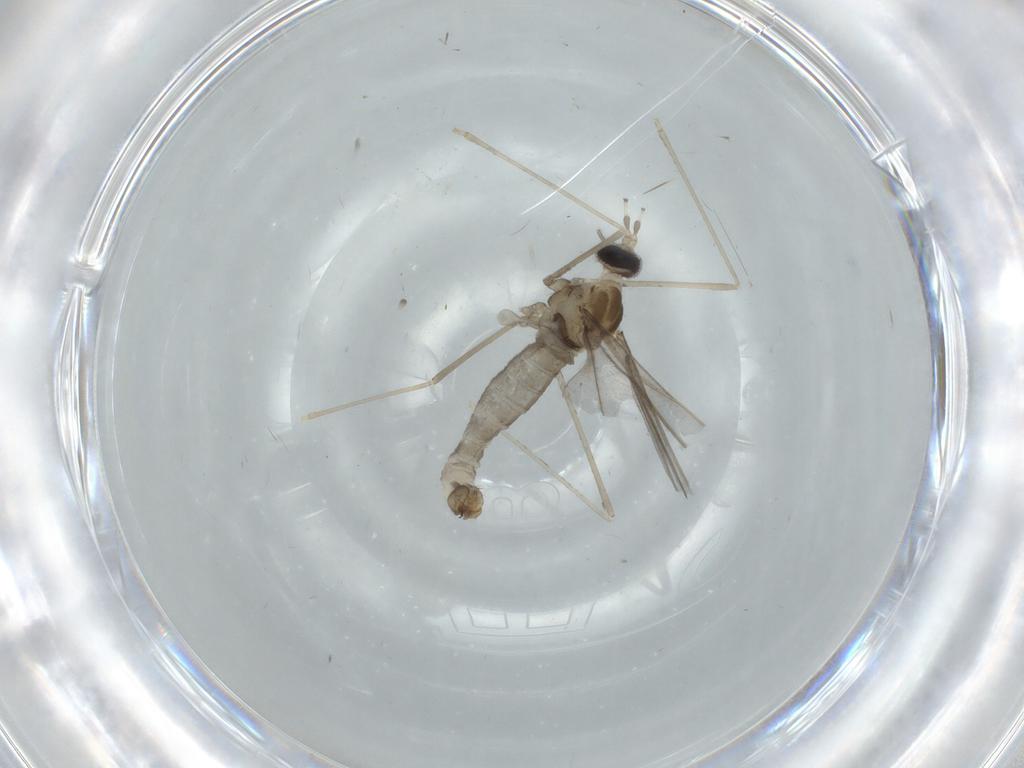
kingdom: Animalia
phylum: Arthropoda
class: Insecta
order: Diptera
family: Cecidomyiidae
